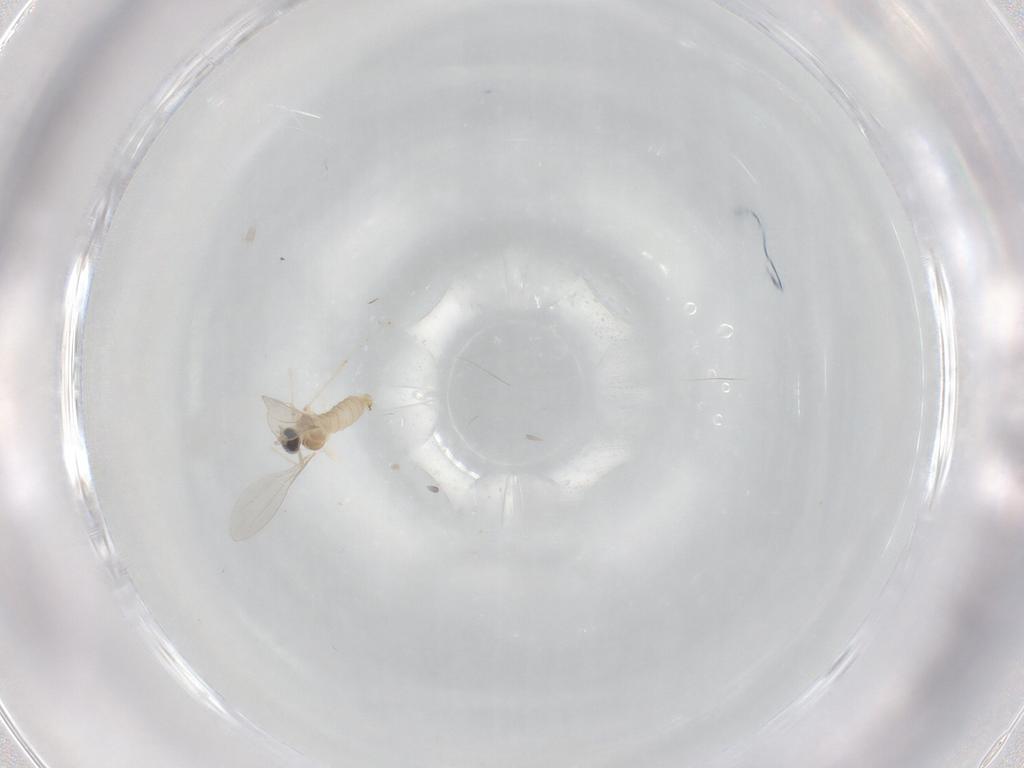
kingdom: Animalia
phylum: Arthropoda
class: Insecta
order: Diptera
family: Cecidomyiidae
